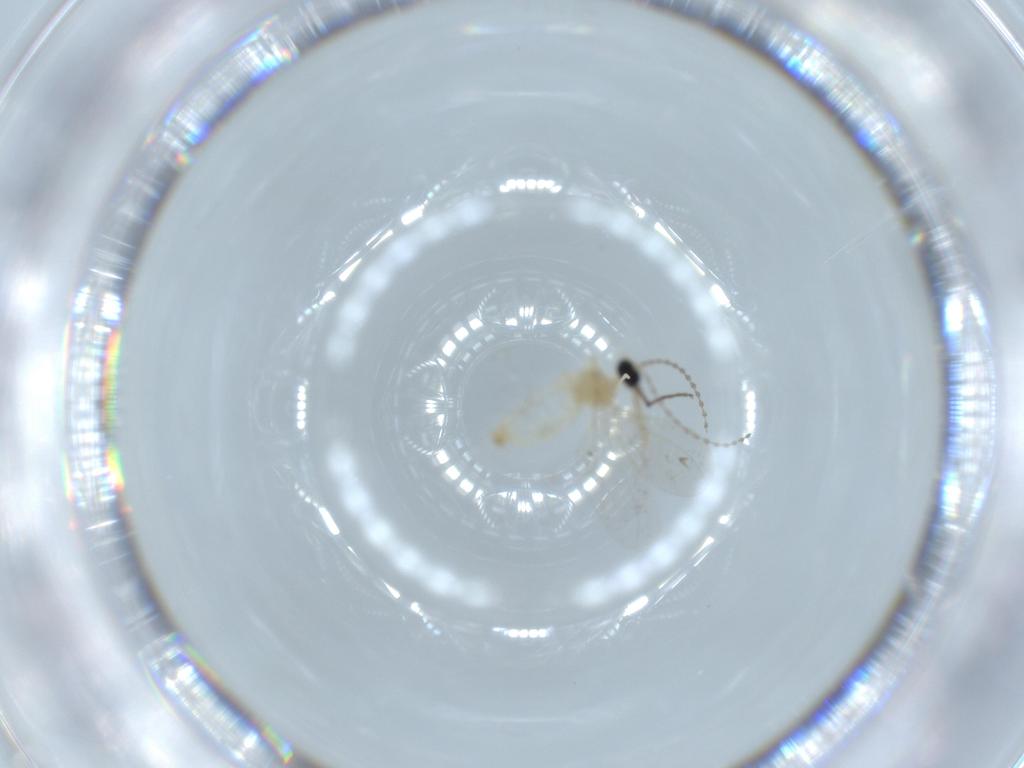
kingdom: Animalia
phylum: Arthropoda
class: Insecta
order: Diptera
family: Cecidomyiidae
